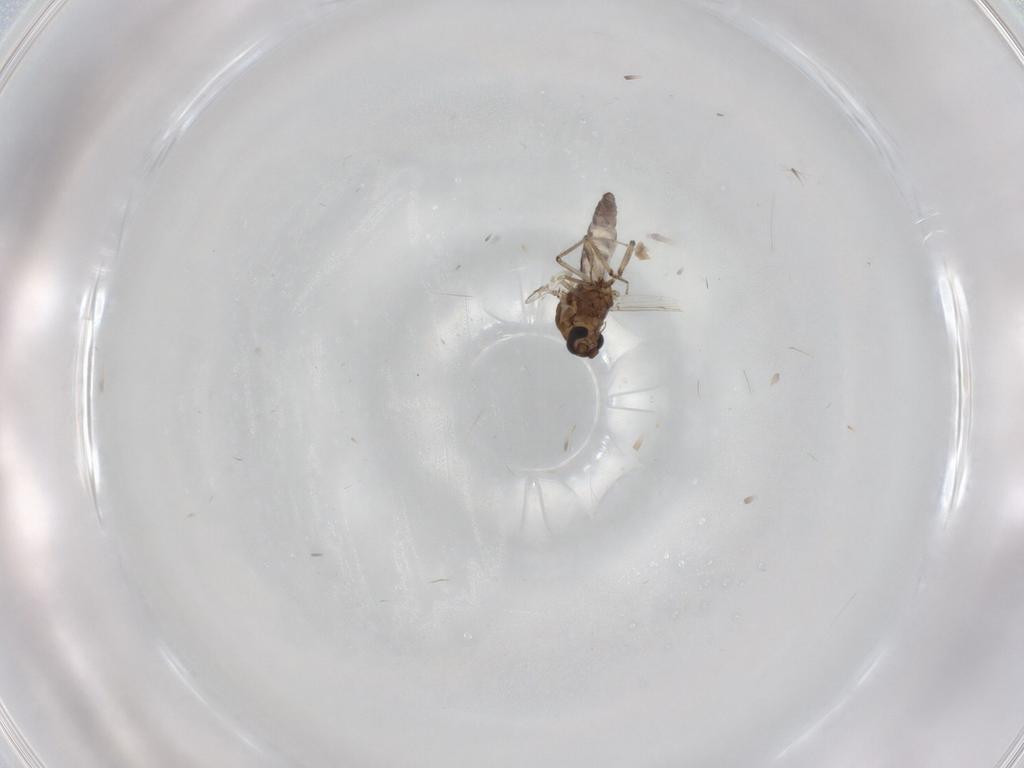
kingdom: Animalia
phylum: Arthropoda
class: Insecta
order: Diptera
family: Ceratopogonidae
